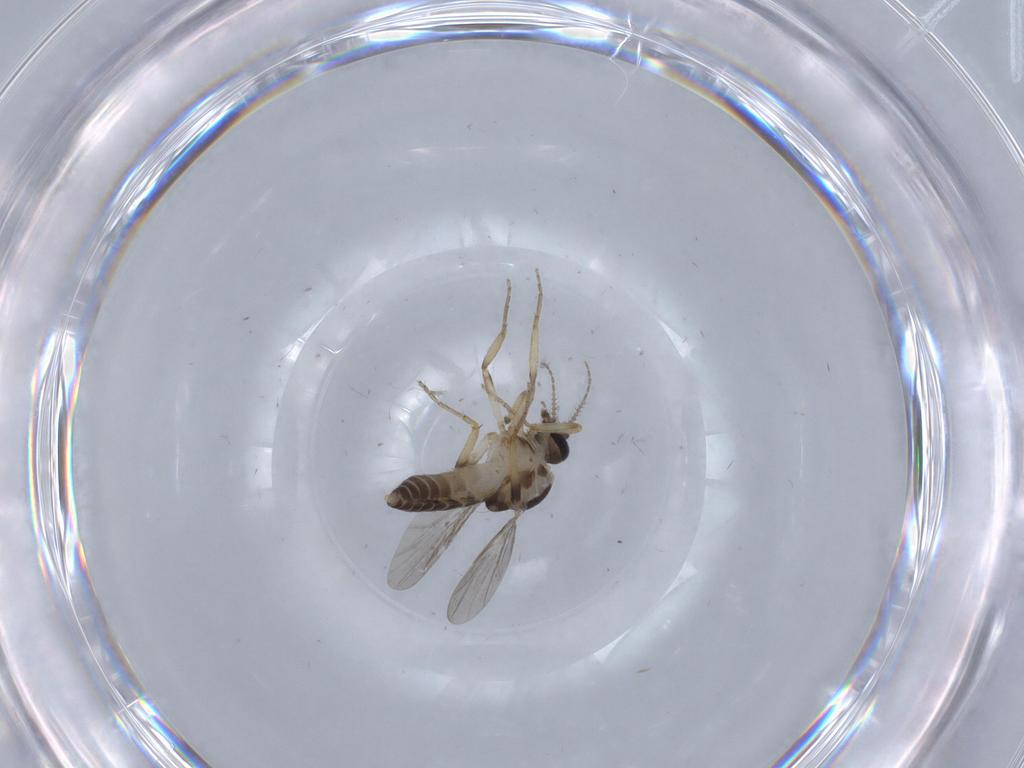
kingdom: Animalia
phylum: Arthropoda
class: Insecta
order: Diptera
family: Ceratopogonidae
